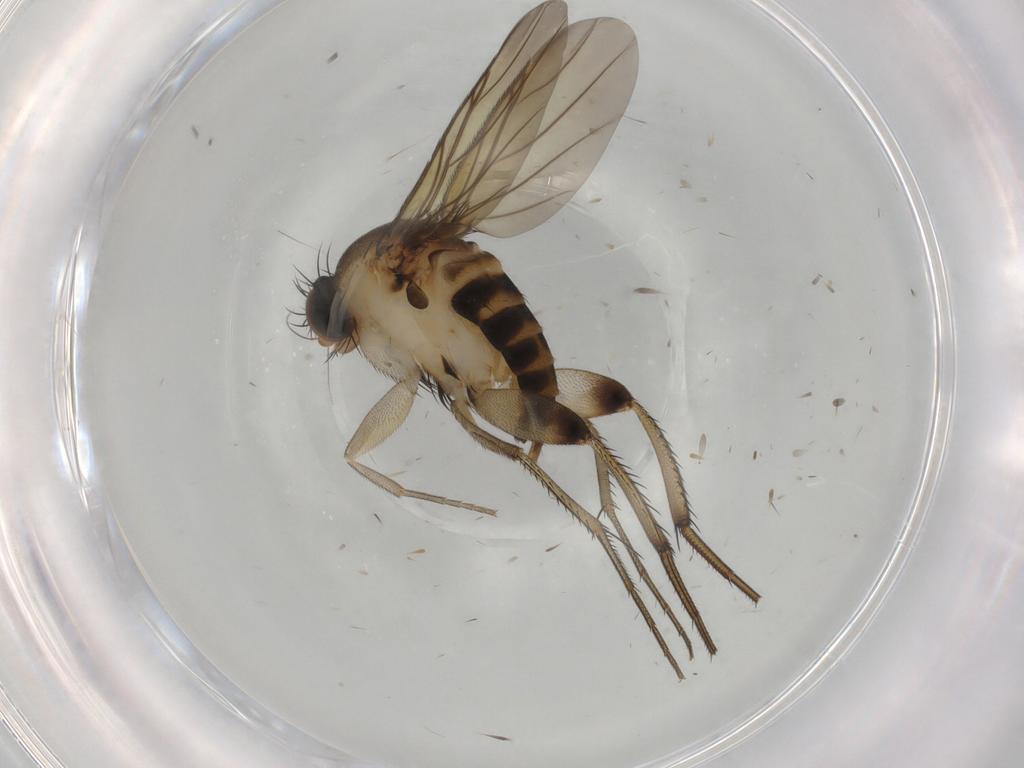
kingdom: Animalia
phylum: Arthropoda
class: Insecta
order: Diptera
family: Phoridae
